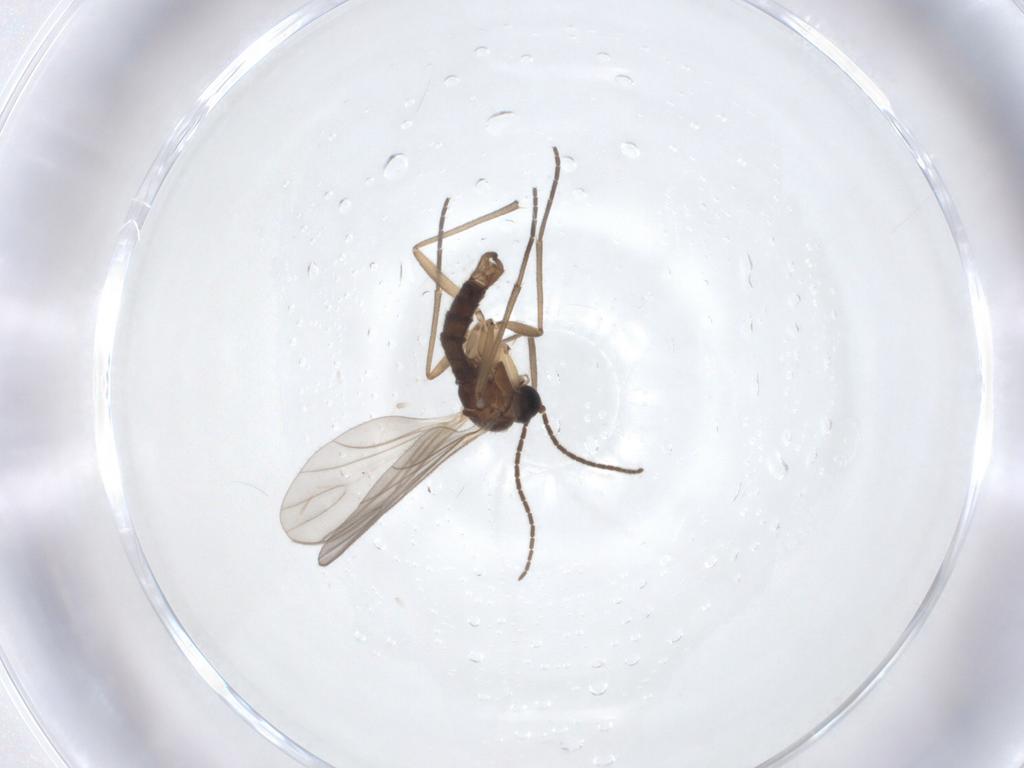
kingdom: Animalia
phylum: Arthropoda
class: Insecta
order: Diptera
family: Sciaridae
